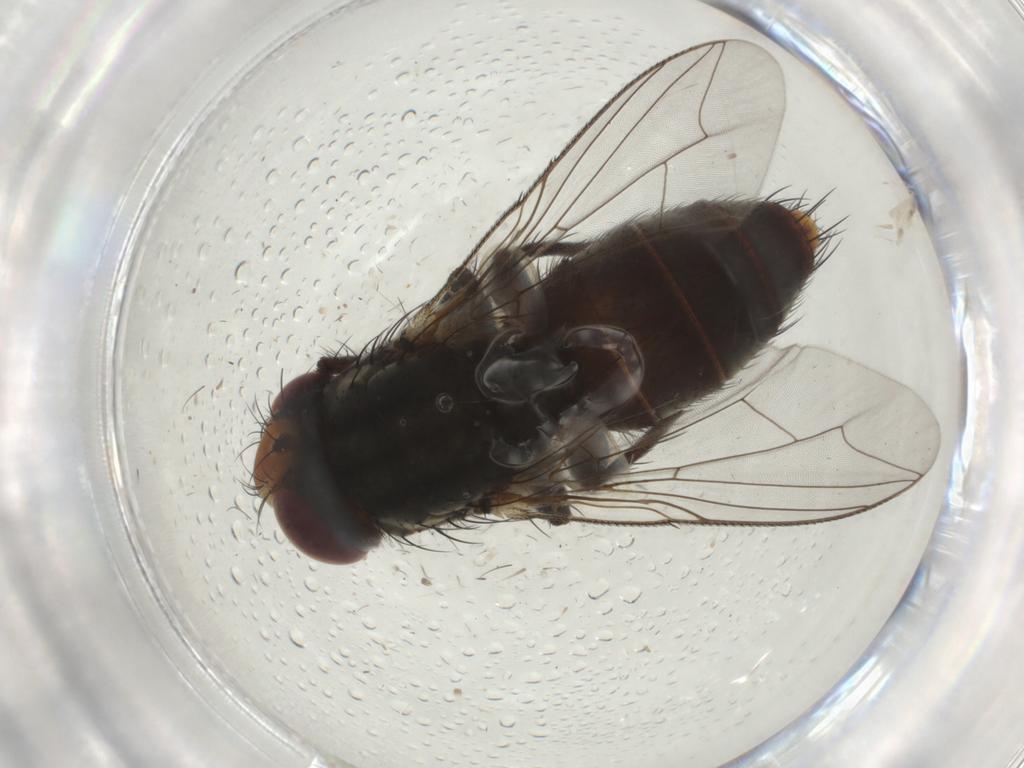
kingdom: Animalia
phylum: Arthropoda
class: Insecta
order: Diptera
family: Sarcophagidae
